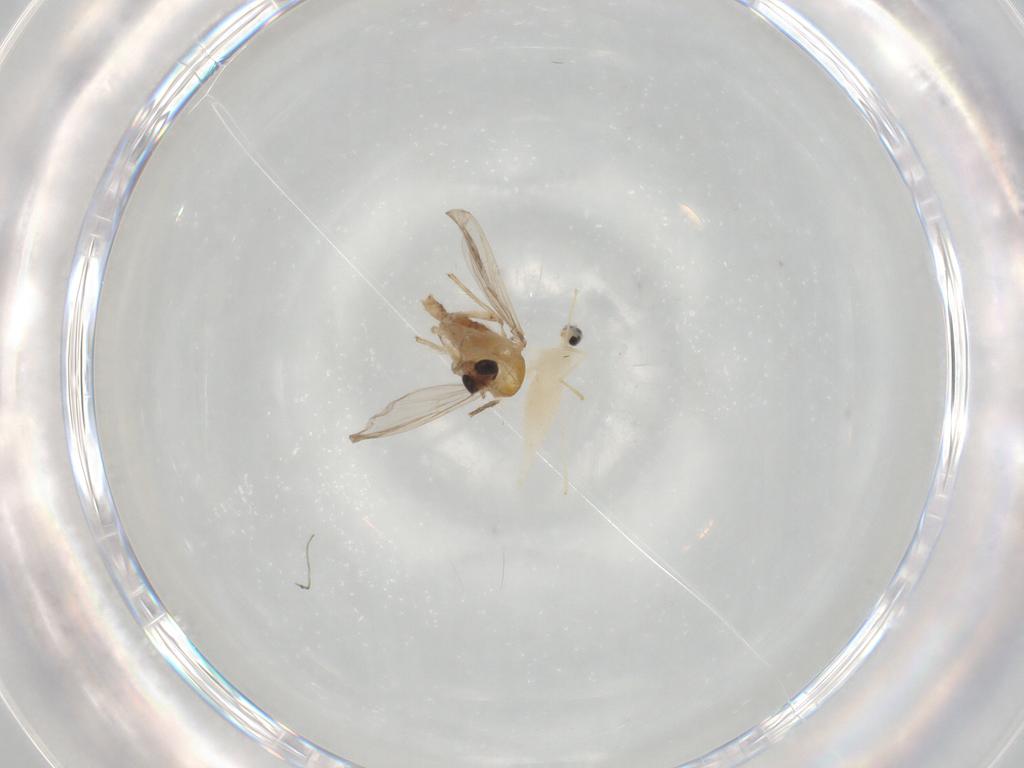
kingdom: Animalia
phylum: Arthropoda
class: Insecta
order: Diptera
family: Cecidomyiidae
